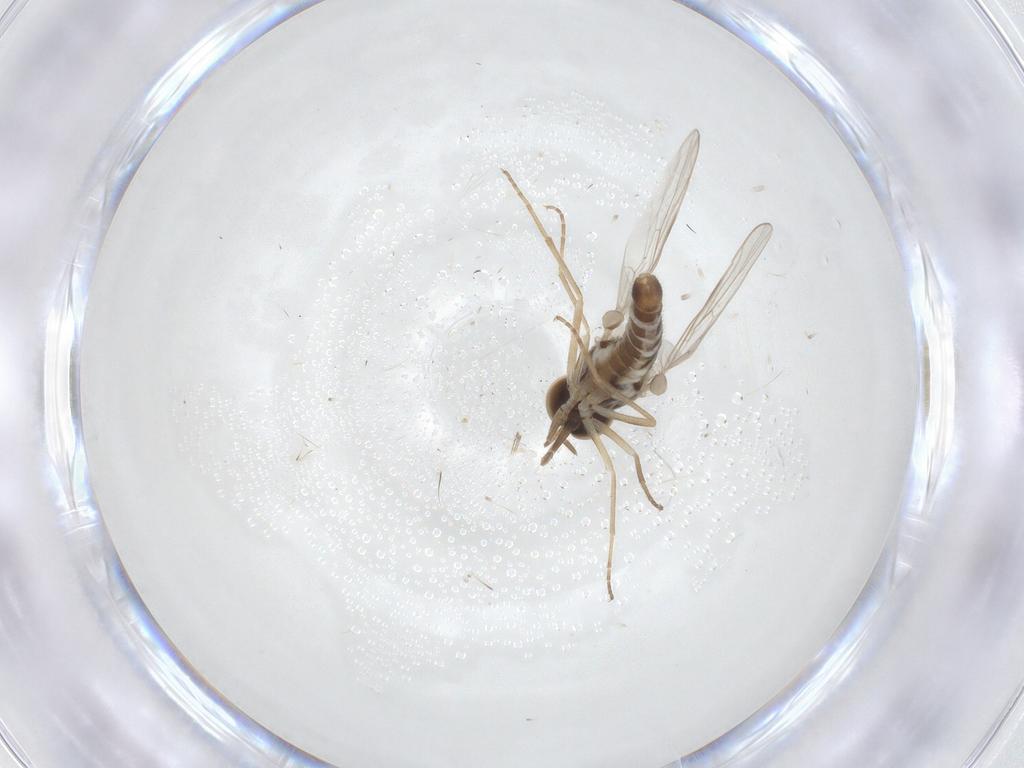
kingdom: Animalia
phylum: Arthropoda
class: Insecta
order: Diptera
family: Scenopinidae
